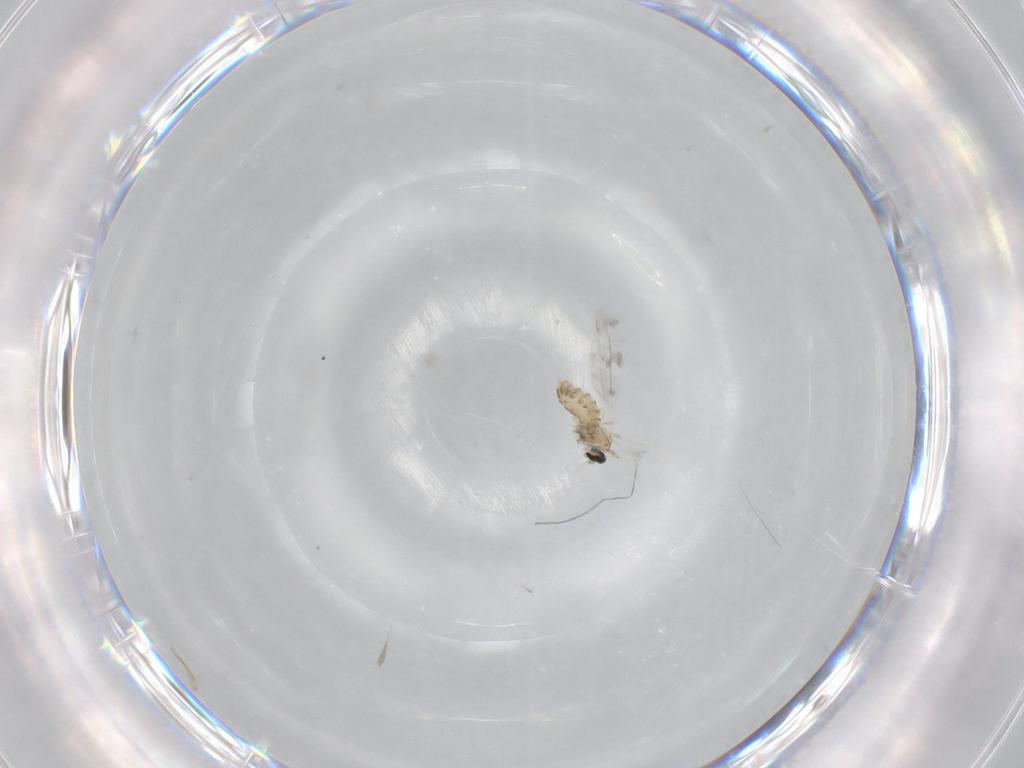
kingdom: Animalia
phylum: Arthropoda
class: Insecta
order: Diptera
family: Cecidomyiidae
